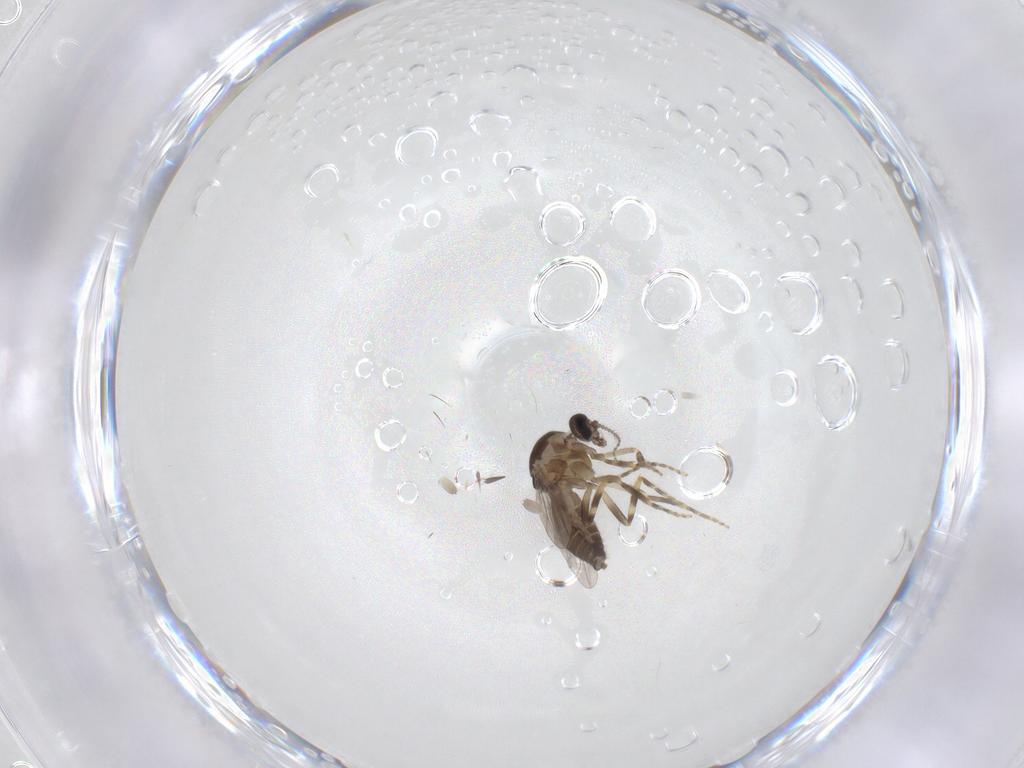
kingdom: Animalia
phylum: Arthropoda
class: Insecta
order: Diptera
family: Ceratopogonidae
